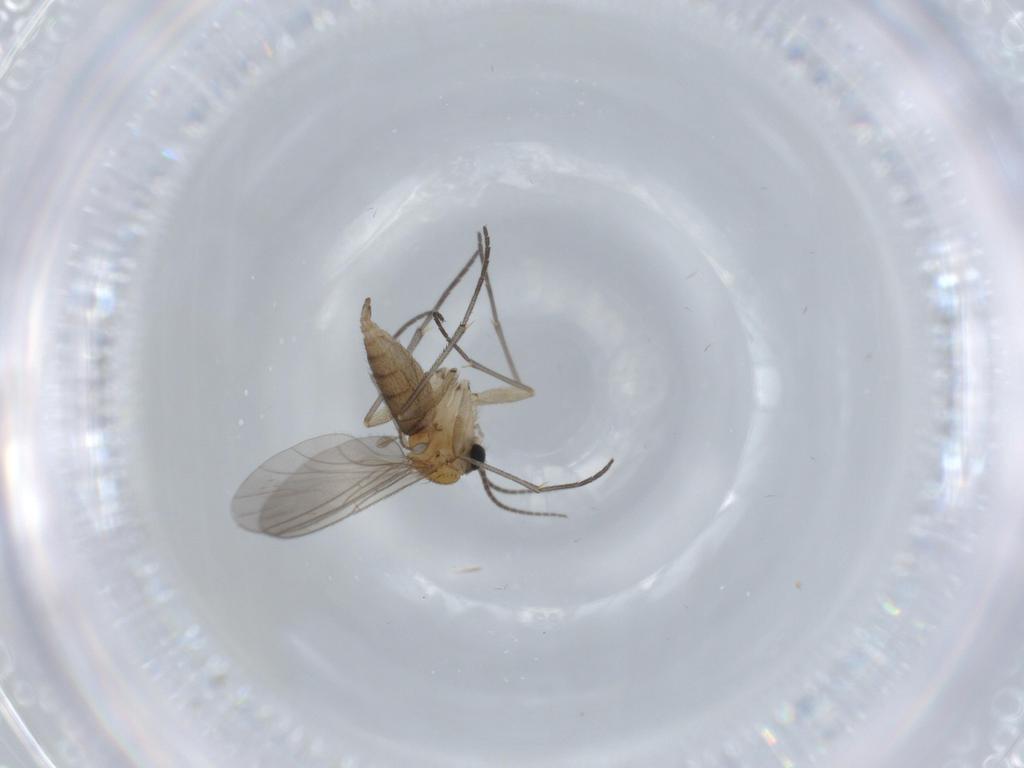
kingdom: Animalia
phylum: Arthropoda
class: Insecta
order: Diptera
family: Sciaridae
